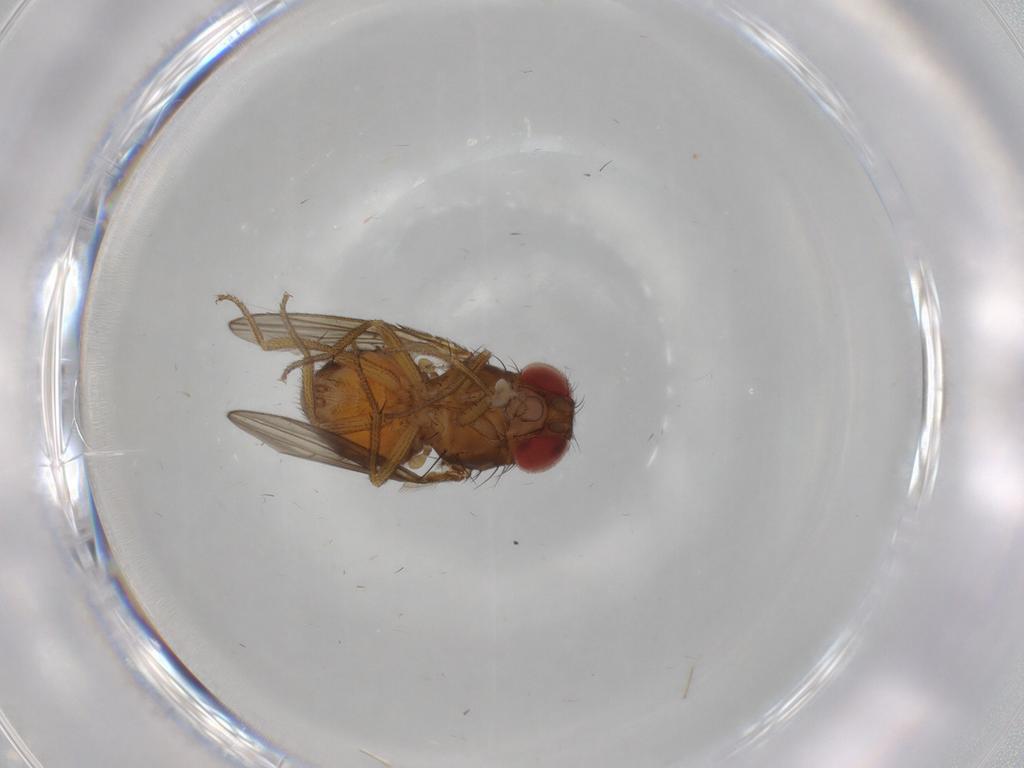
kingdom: Animalia
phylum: Arthropoda
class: Insecta
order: Diptera
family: Drosophilidae
